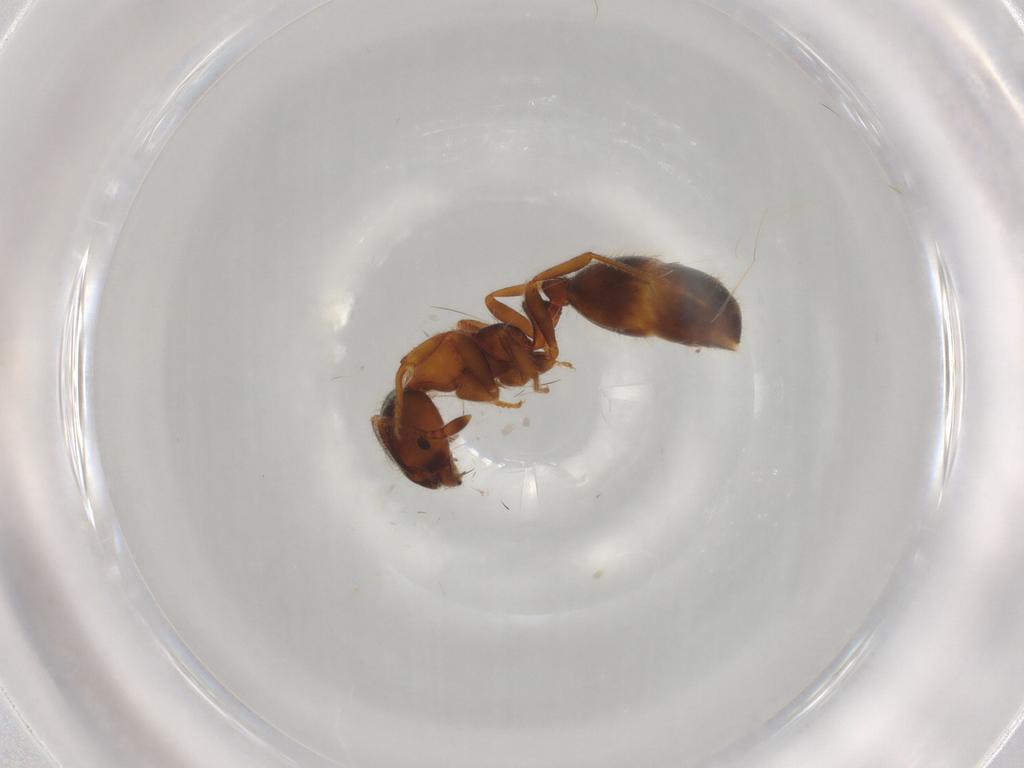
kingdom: Animalia
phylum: Arthropoda
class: Insecta
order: Hymenoptera
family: Formicidae
